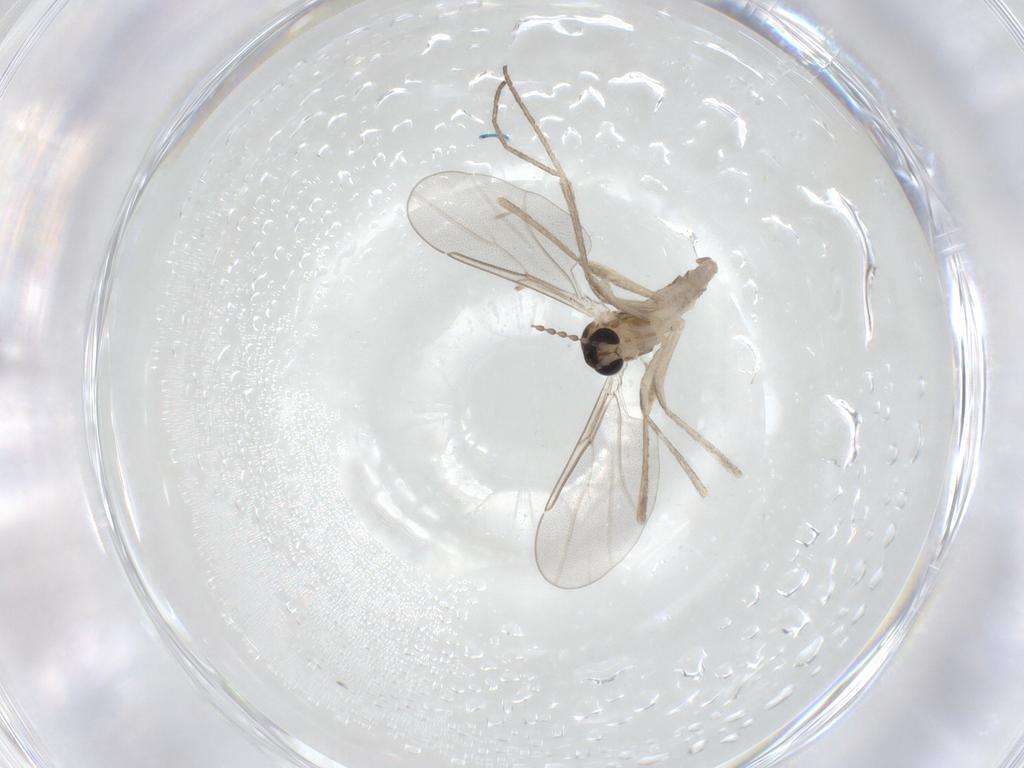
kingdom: Animalia
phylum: Arthropoda
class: Insecta
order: Diptera
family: Cecidomyiidae
